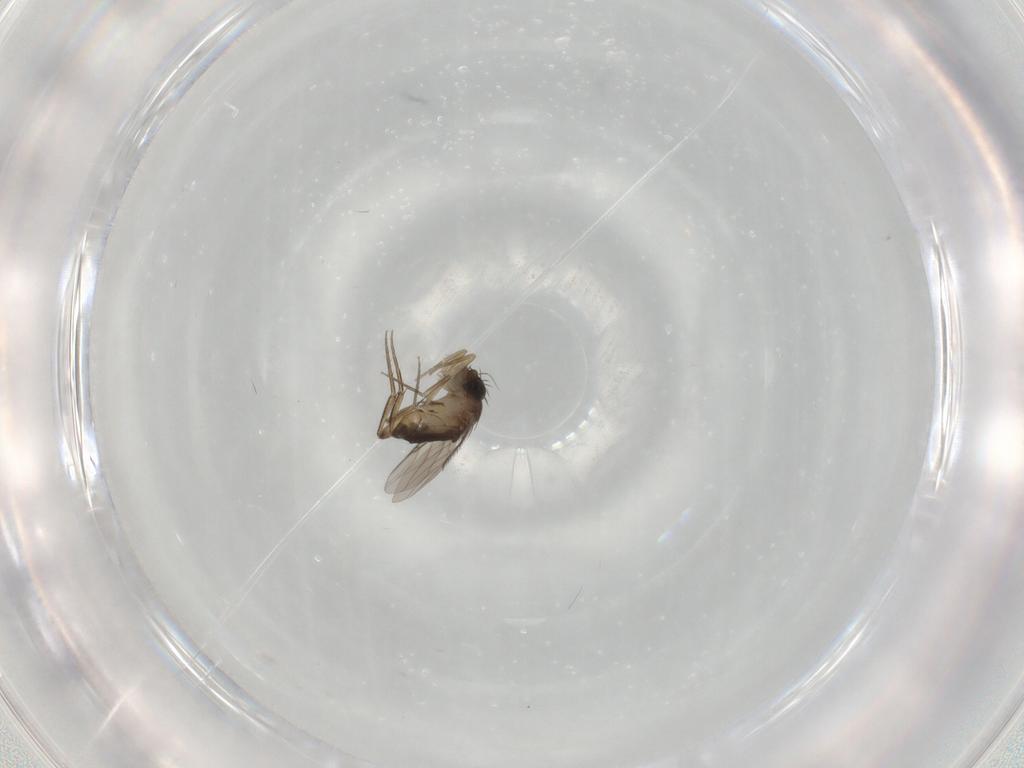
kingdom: Animalia
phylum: Arthropoda
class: Insecta
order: Diptera
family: Phoridae
